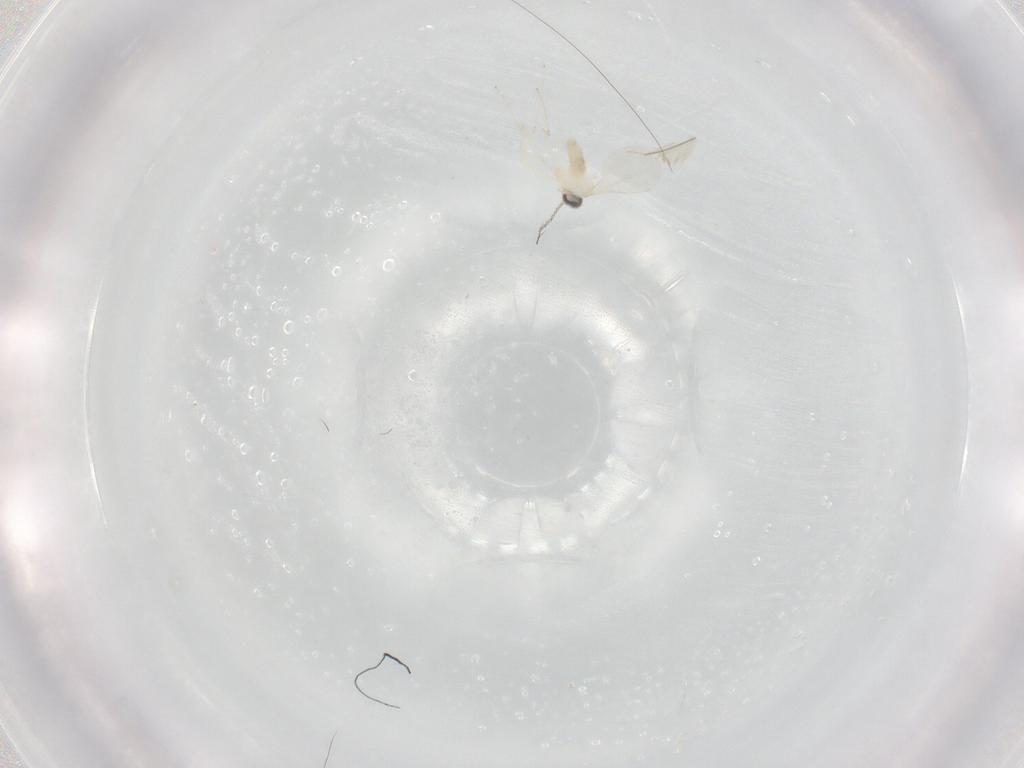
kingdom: Animalia
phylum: Arthropoda
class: Insecta
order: Diptera
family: Cecidomyiidae
